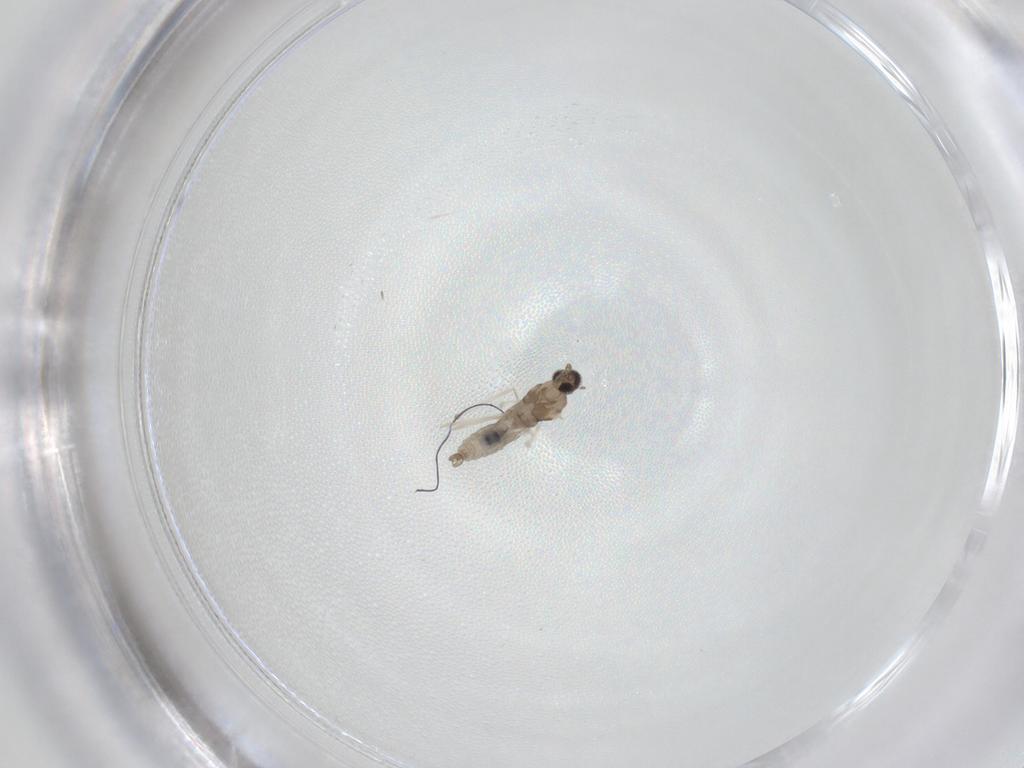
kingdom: Animalia
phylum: Arthropoda
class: Insecta
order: Diptera
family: Cecidomyiidae
